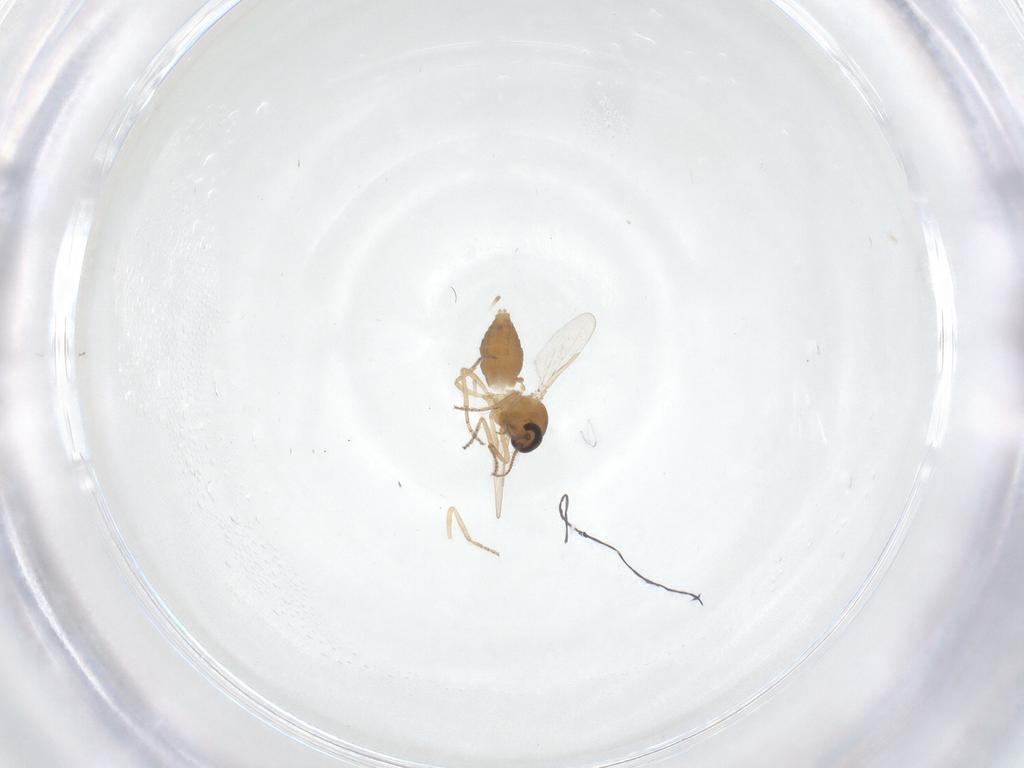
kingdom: Animalia
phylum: Arthropoda
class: Insecta
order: Diptera
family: Ceratopogonidae
